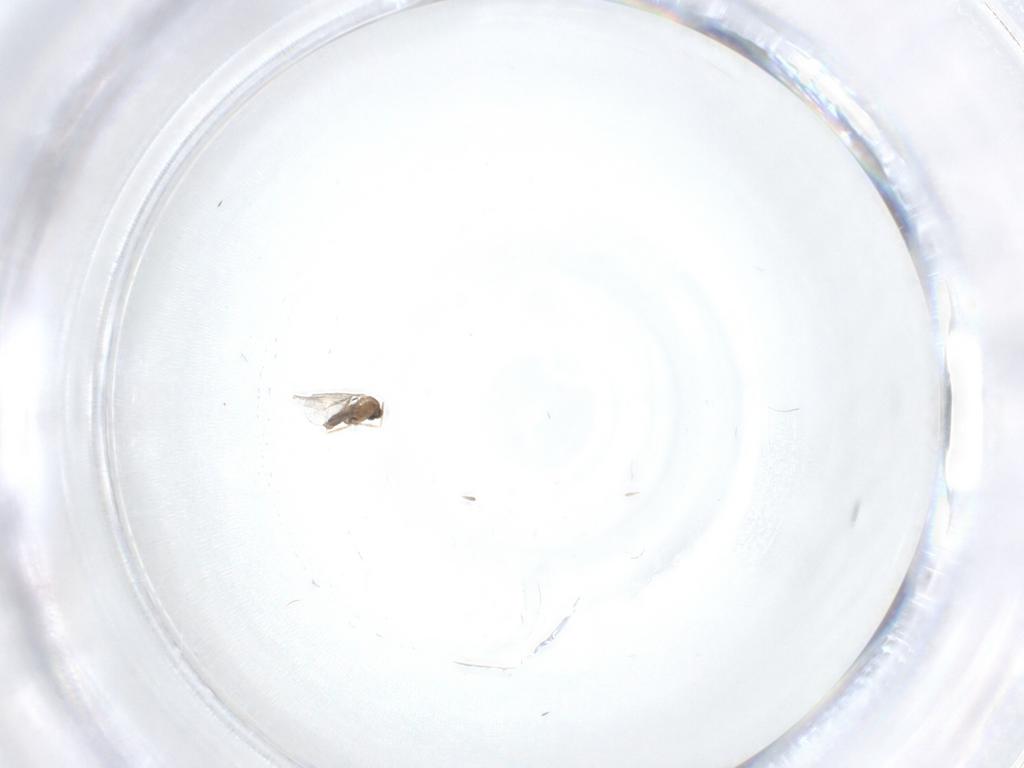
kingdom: Animalia
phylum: Arthropoda
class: Insecta
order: Diptera
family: Cecidomyiidae
